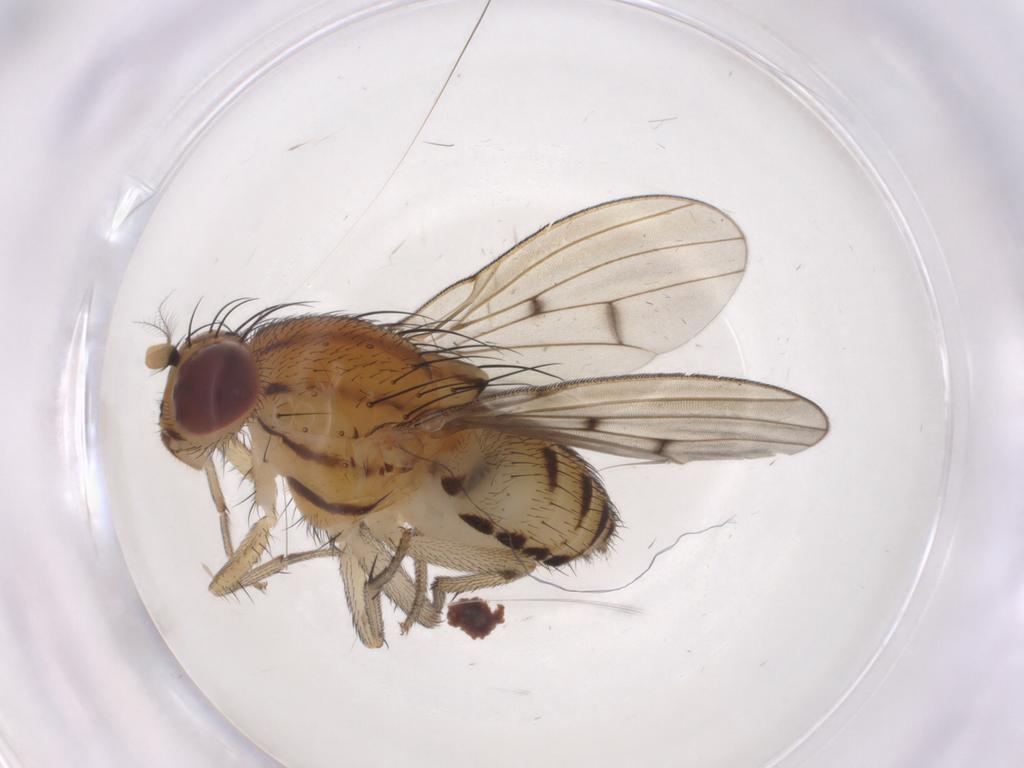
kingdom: Animalia
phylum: Arthropoda
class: Insecta
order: Diptera
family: Lauxaniidae
